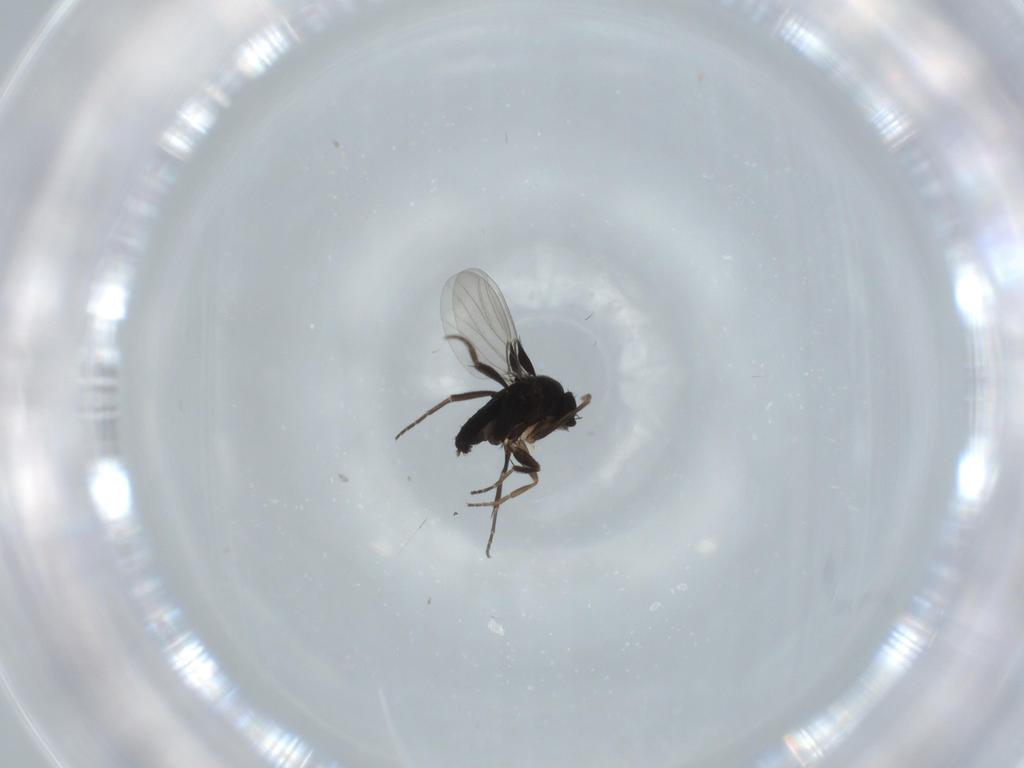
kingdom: Animalia
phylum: Arthropoda
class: Insecta
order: Diptera
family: Phoridae
